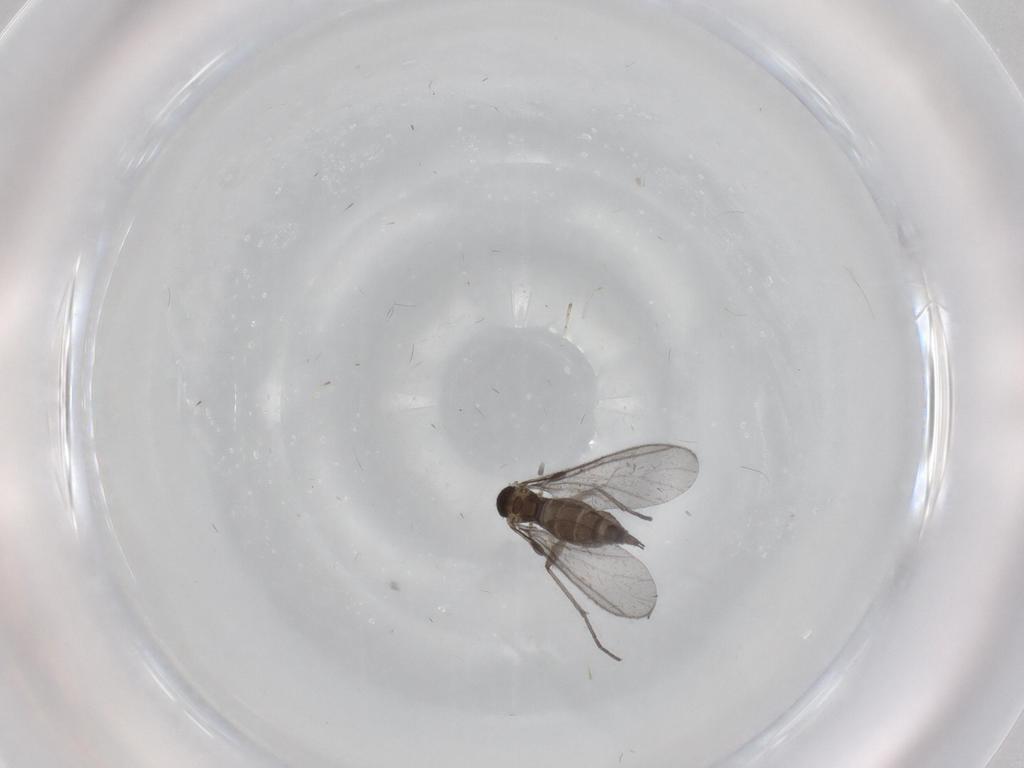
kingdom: Animalia
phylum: Arthropoda
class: Insecta
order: Diptera
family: Sciaridae
